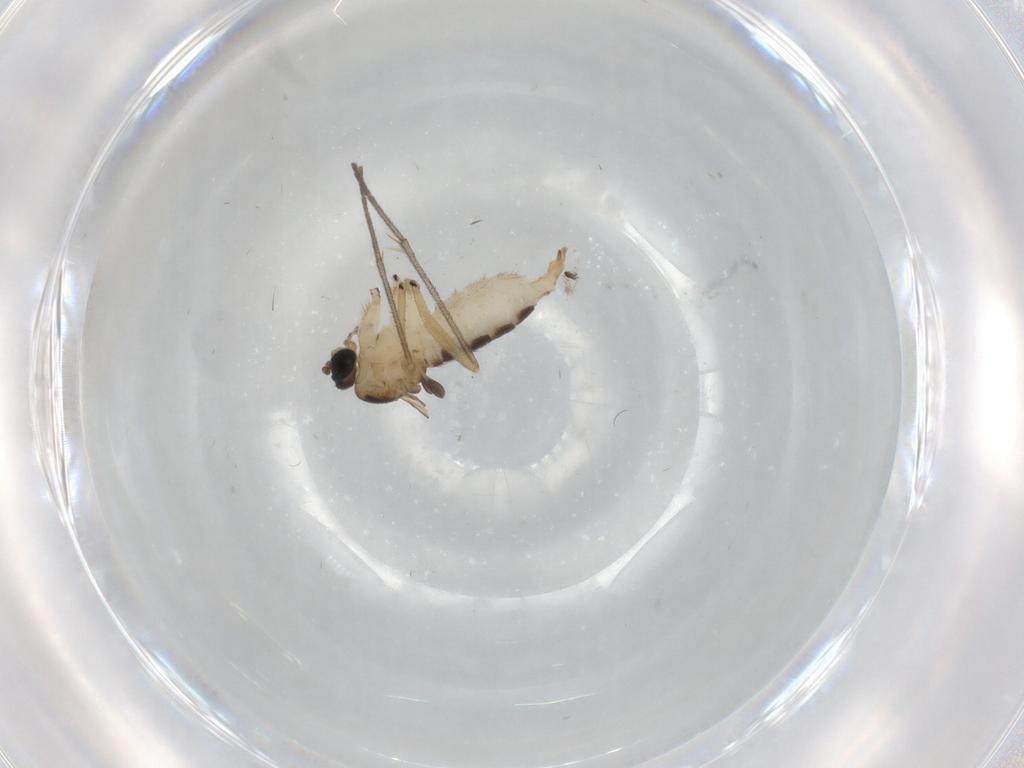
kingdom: Animalia
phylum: Arthropoda
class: Insecta
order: Diptera
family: Sciaridae
